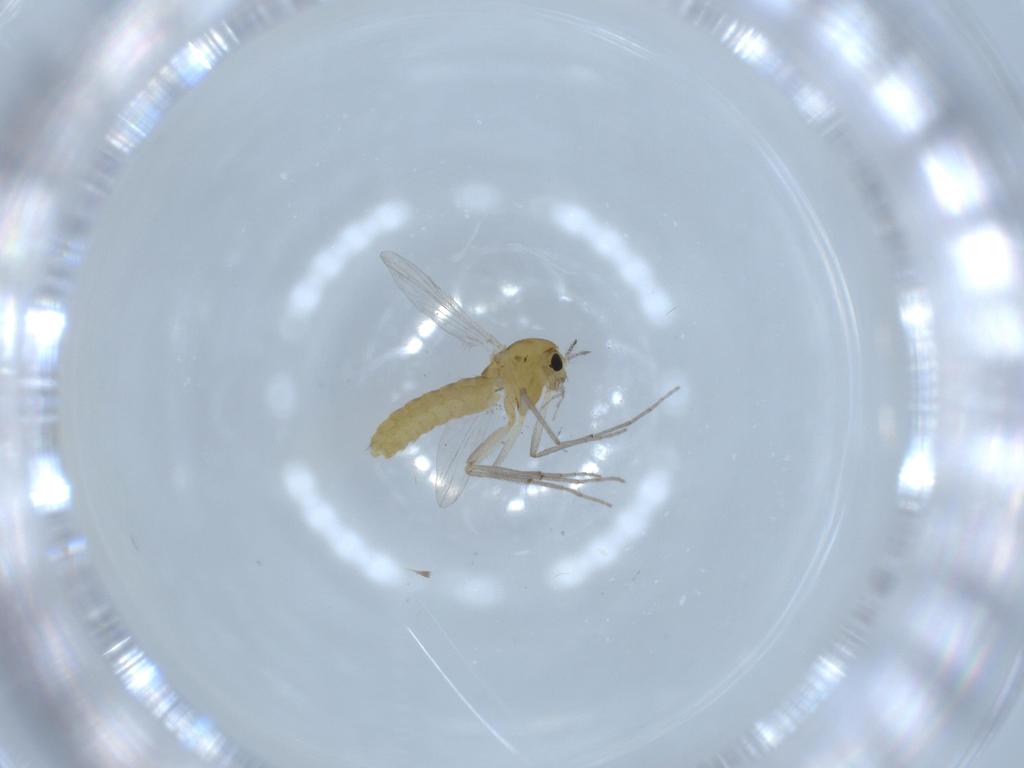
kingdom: Animalia
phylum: Arthropoda
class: Insecta
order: Diptera
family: Chironomidae
